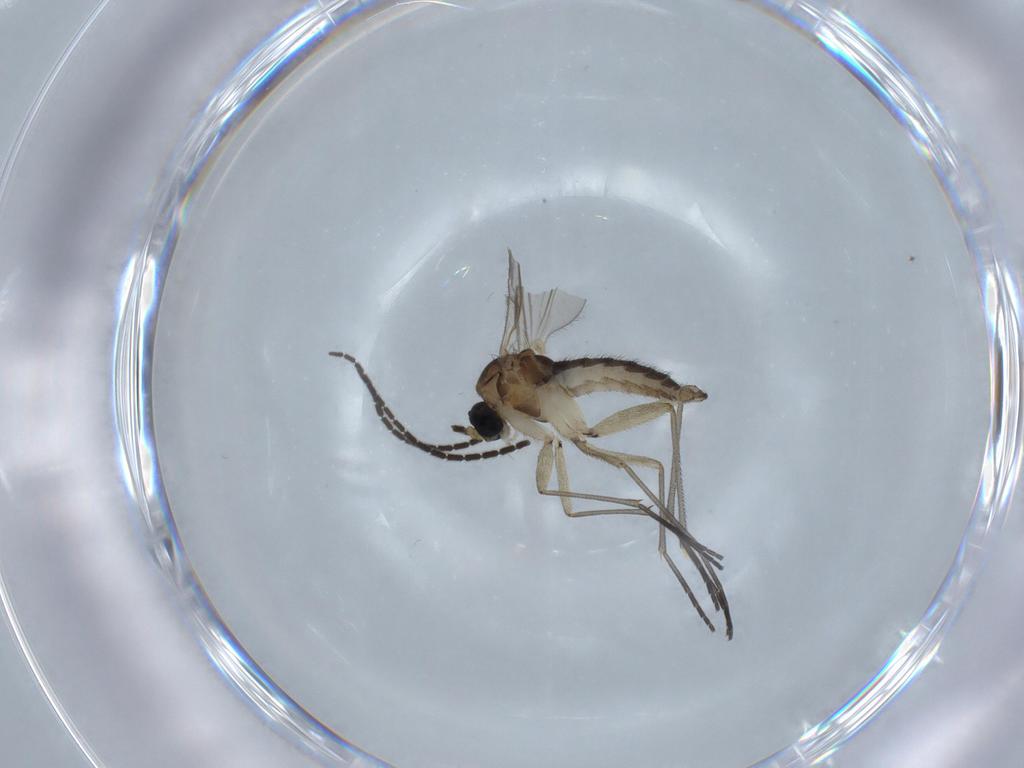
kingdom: Animalia
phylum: Arthropoda
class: Insecta
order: Diptera
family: Sciaridae
